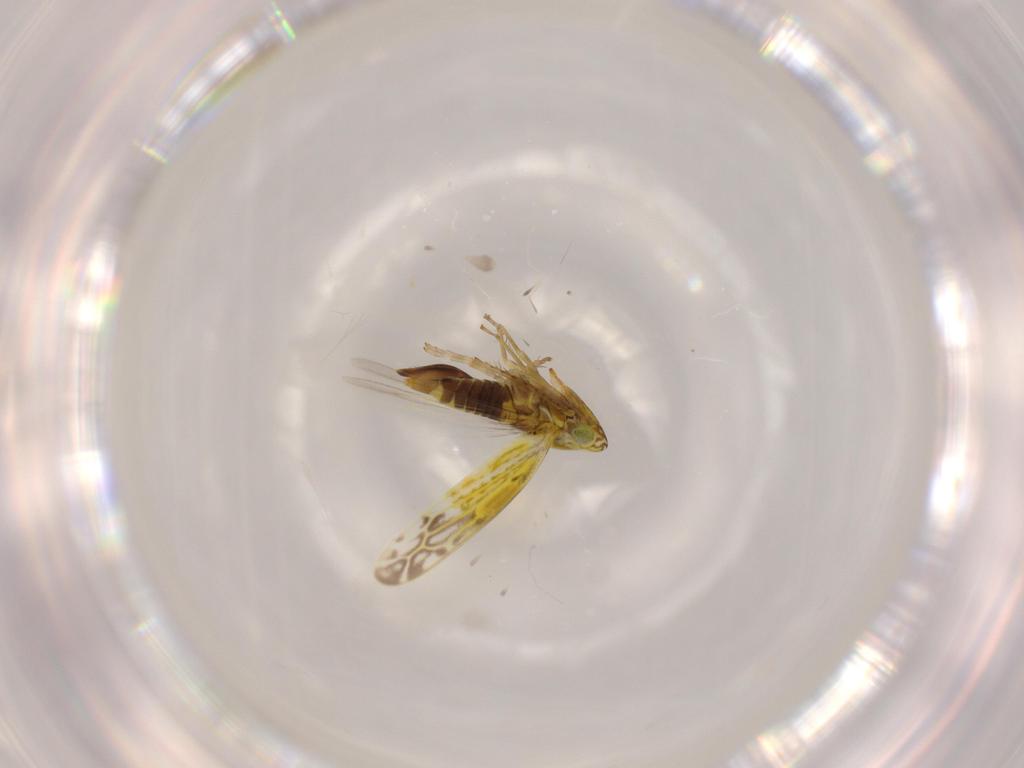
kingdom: Animalia
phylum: Arthropoda
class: Insecta
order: Hemiptera
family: Cicadellidae
